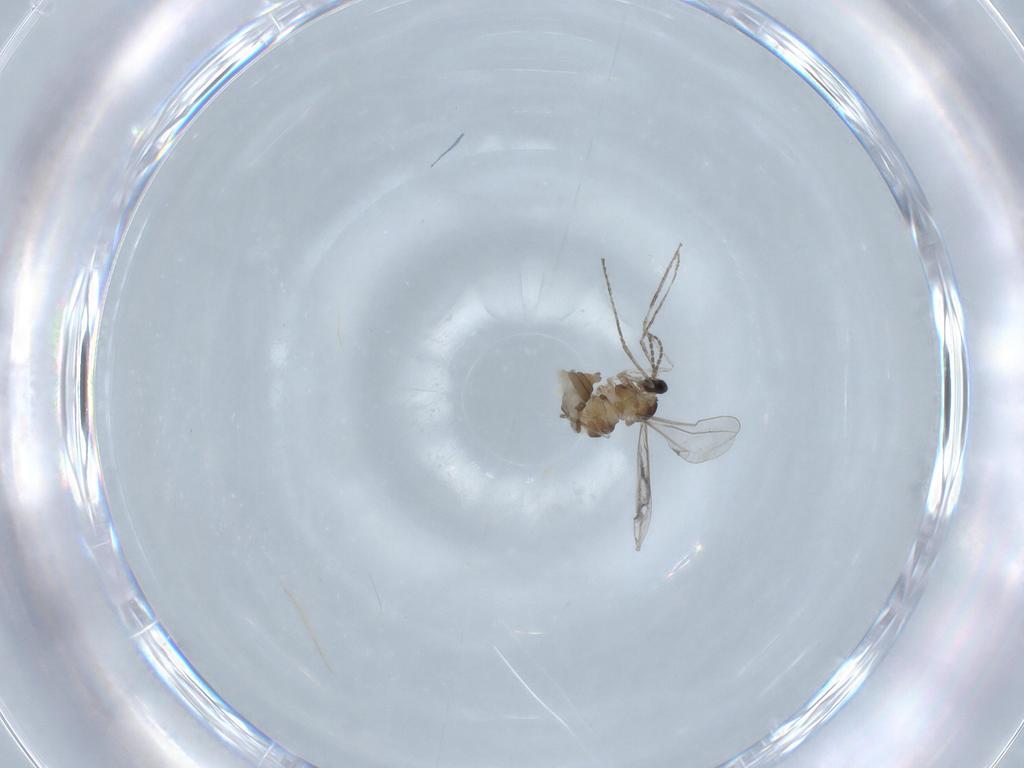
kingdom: Animalia
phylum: Arthropoda
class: Insecta
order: Diptera
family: Cecidomyiidae
